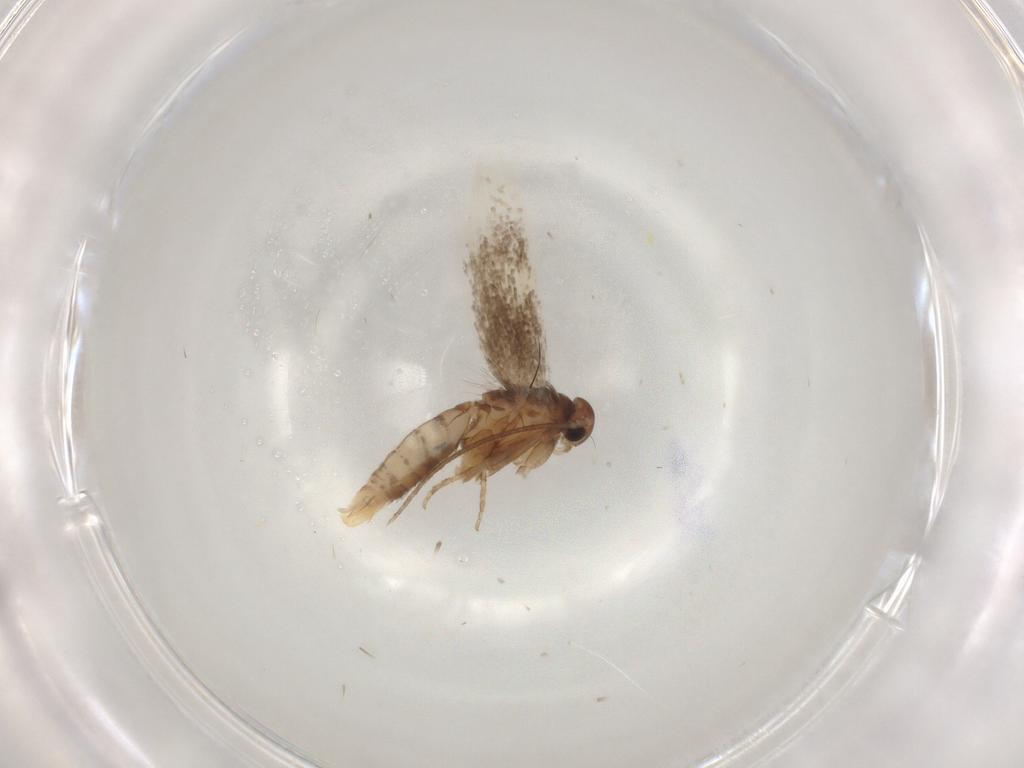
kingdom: Animalia
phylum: Arthropoda
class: Insecta
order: Lepidoptera
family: Elachistidae
